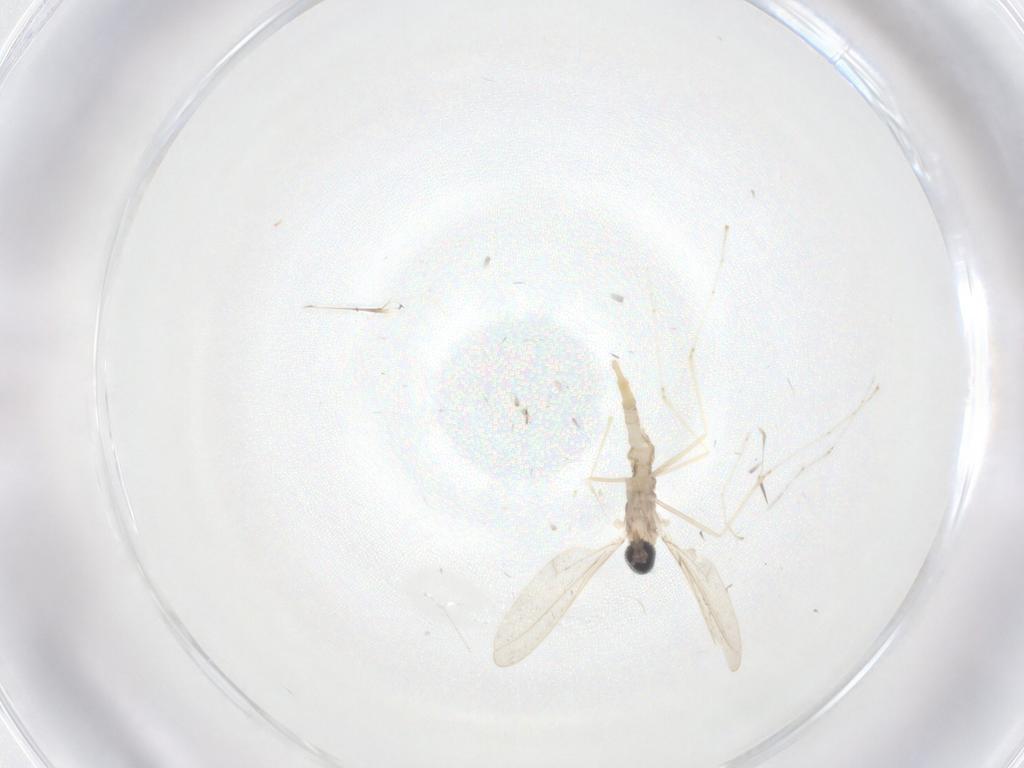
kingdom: Animalia
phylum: Arthropoda
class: Insecta
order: Diptera
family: Cecidomyiidae
